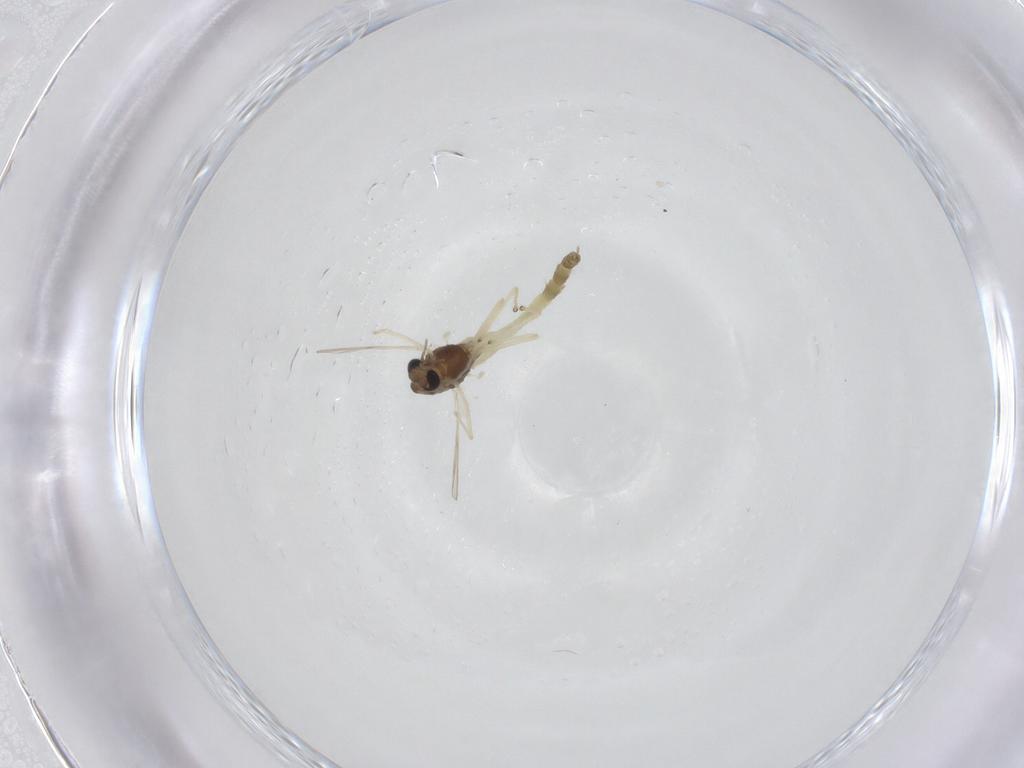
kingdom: Animalia
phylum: Arthropoda
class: Insecta
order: Diptera
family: Chironomidae
